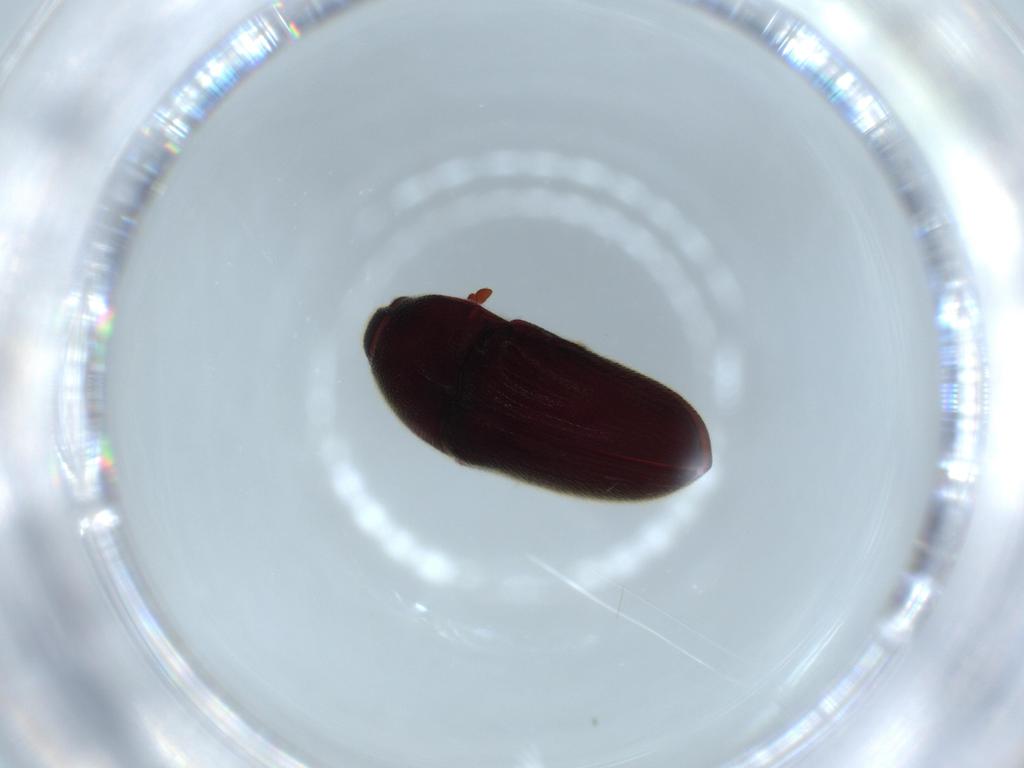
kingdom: Animalia
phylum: Arthropoda
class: Insecta
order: Coleoptera
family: Throscidae
